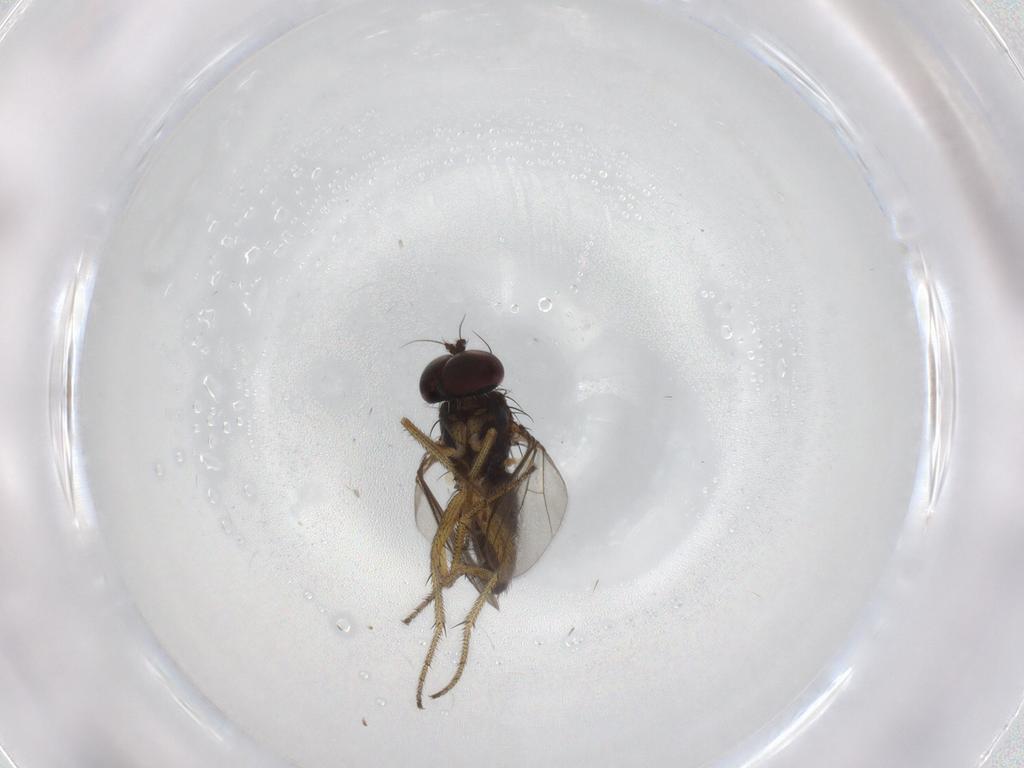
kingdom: Animalia
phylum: Arthropoda
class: Insecta
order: Diptera
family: Chironomidae
